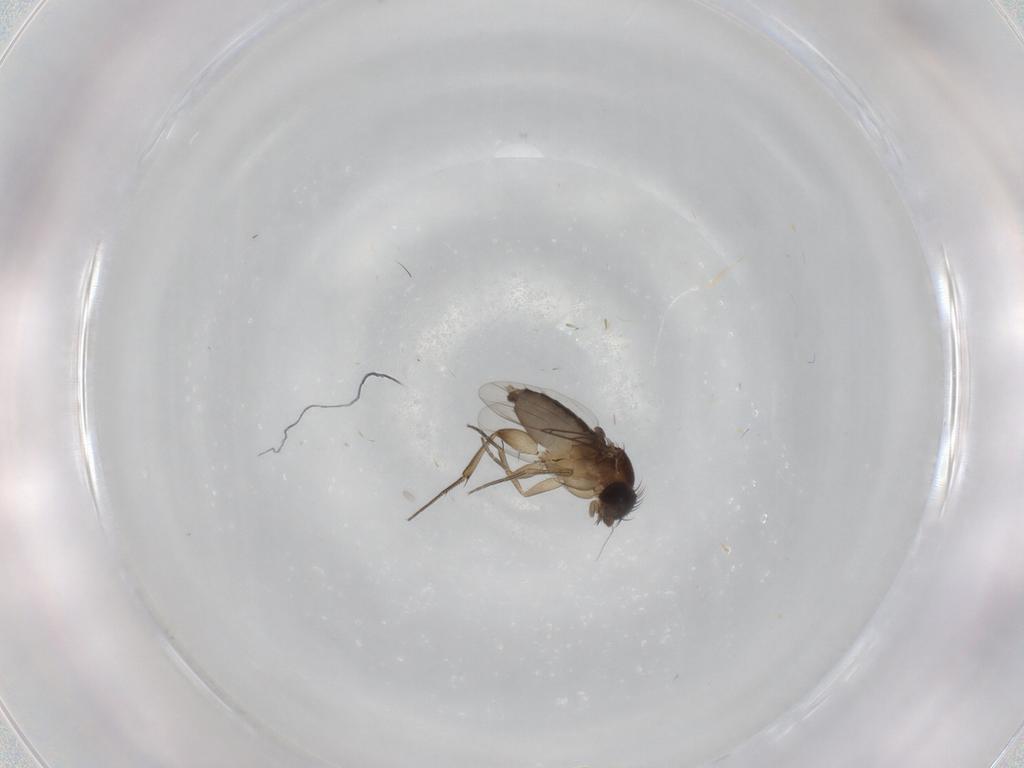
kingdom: Animalia
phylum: Arthropoda
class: Insecta
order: Diptera
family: Phoridae
